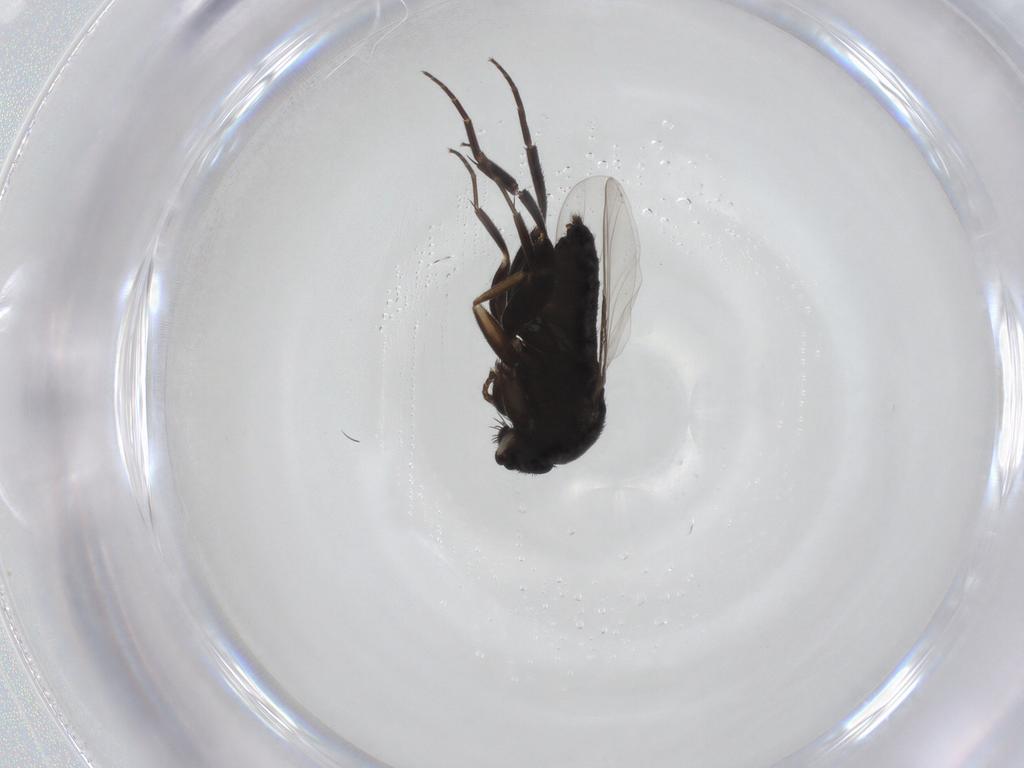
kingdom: Animalia
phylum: Arthropoda
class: Insecta
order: Diptera
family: Phoridae
